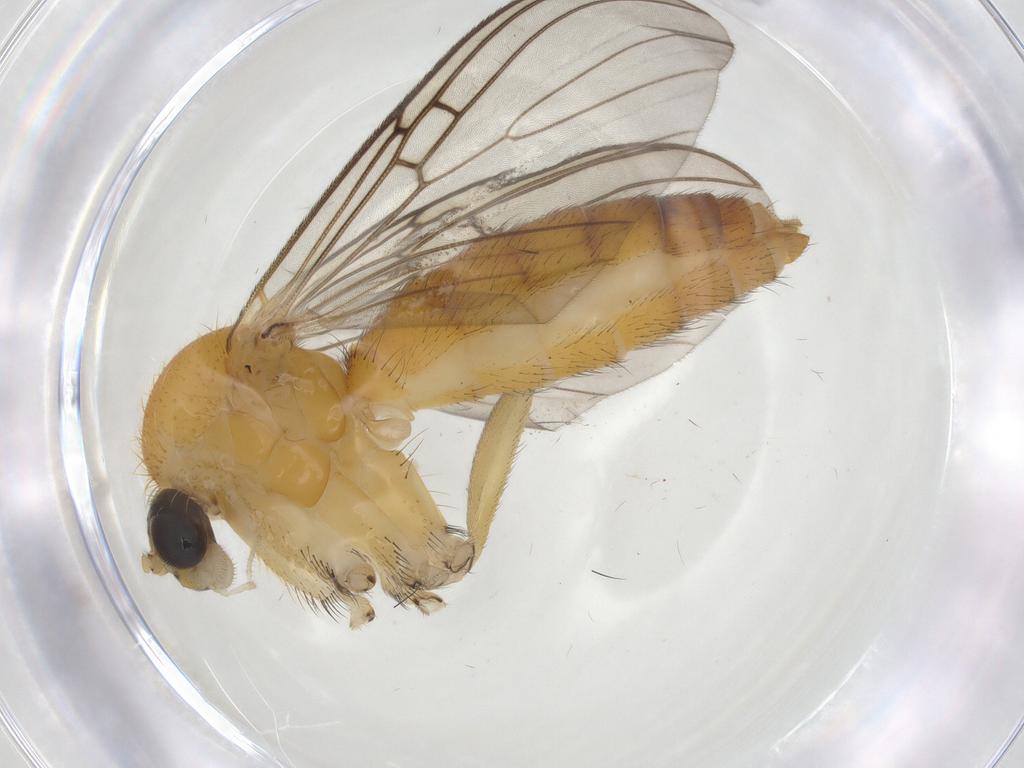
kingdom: Animalia
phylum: Arthropoda
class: Insecta
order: Diptera
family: Mycetophilidae
